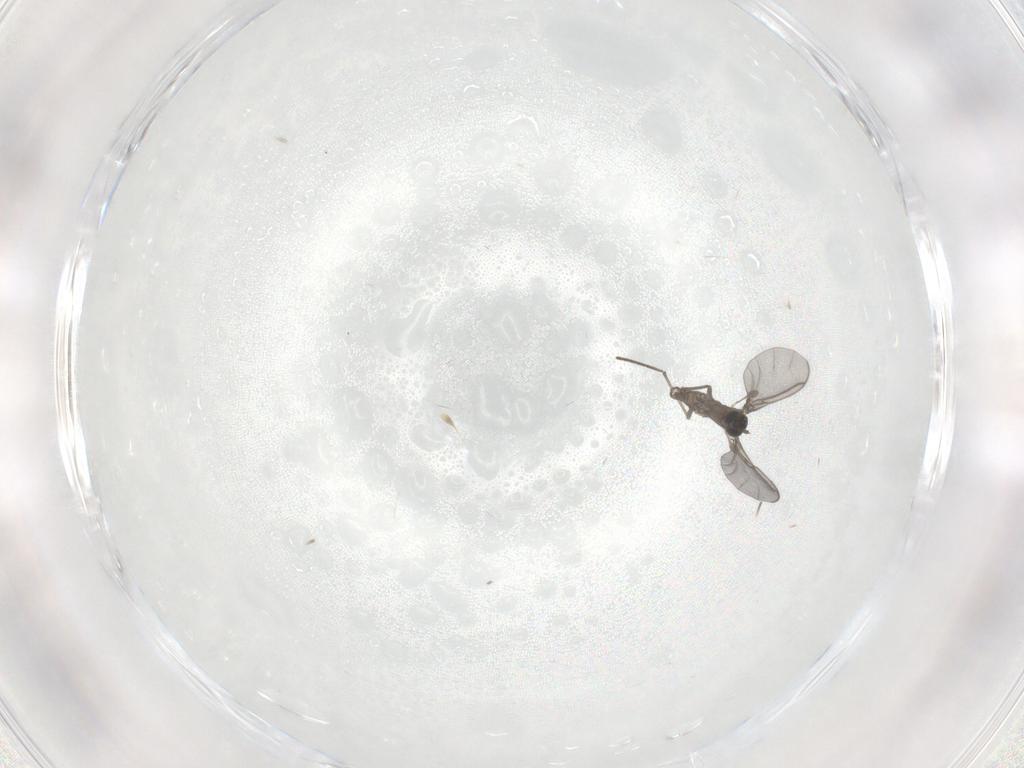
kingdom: Animalia
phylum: Arthropoda
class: Insecta
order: Diptera
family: Sciaridae
